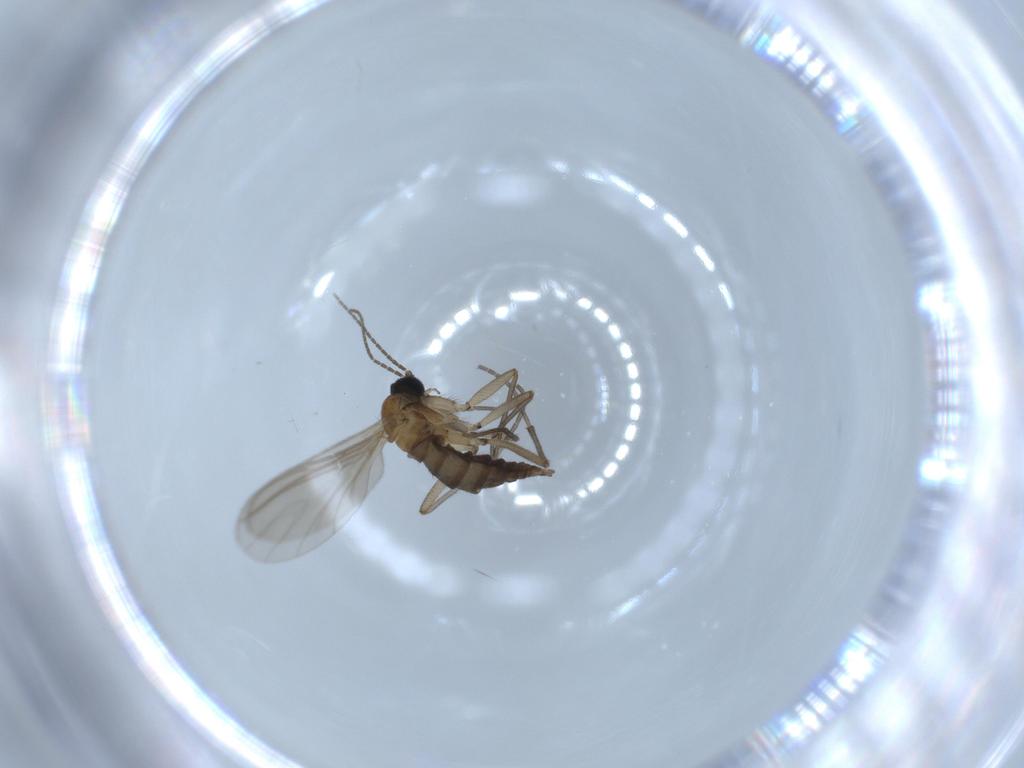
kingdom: Animalia
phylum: Arthropoda
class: Insecta
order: Diptera
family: Sciaridae
